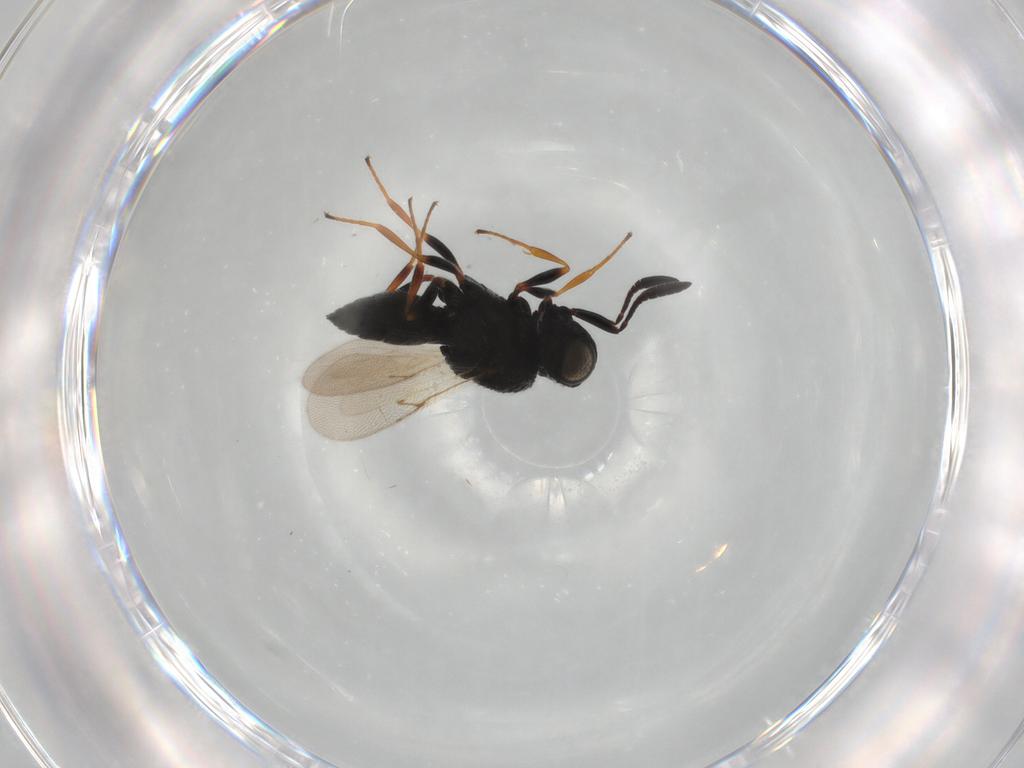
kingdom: Animalia
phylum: Arthropoda
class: Insecta
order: Hymenoptera
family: Scelionidae
